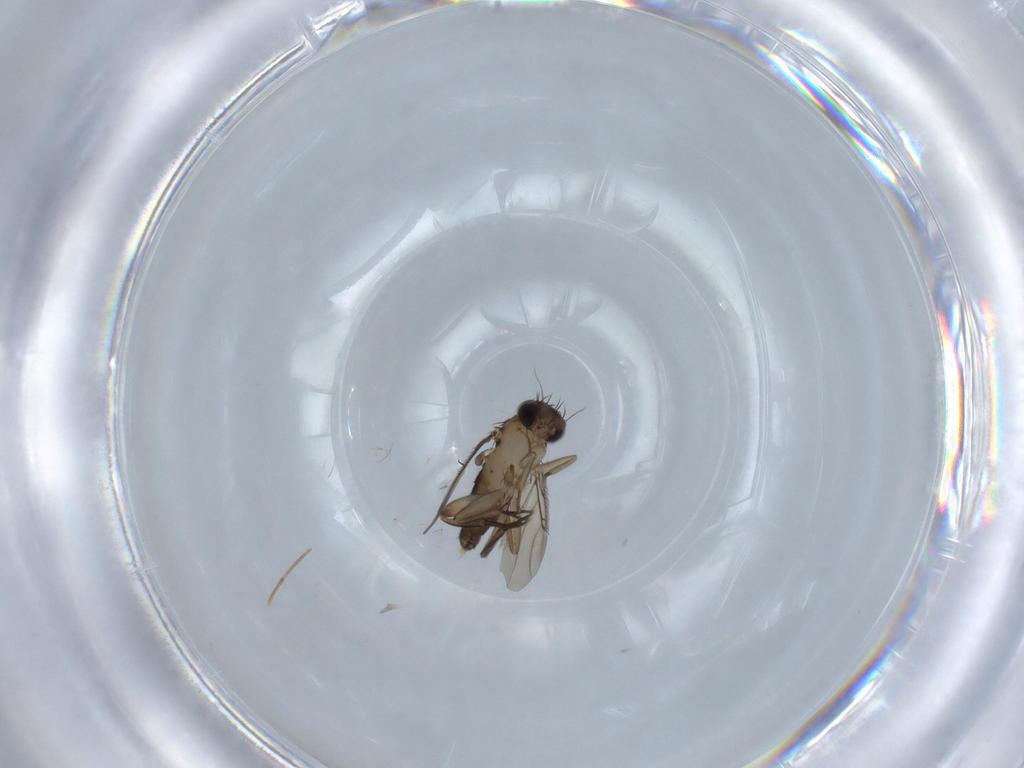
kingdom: Animalia
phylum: Arthropoda
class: Insecta
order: Diptera
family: Phoridae
